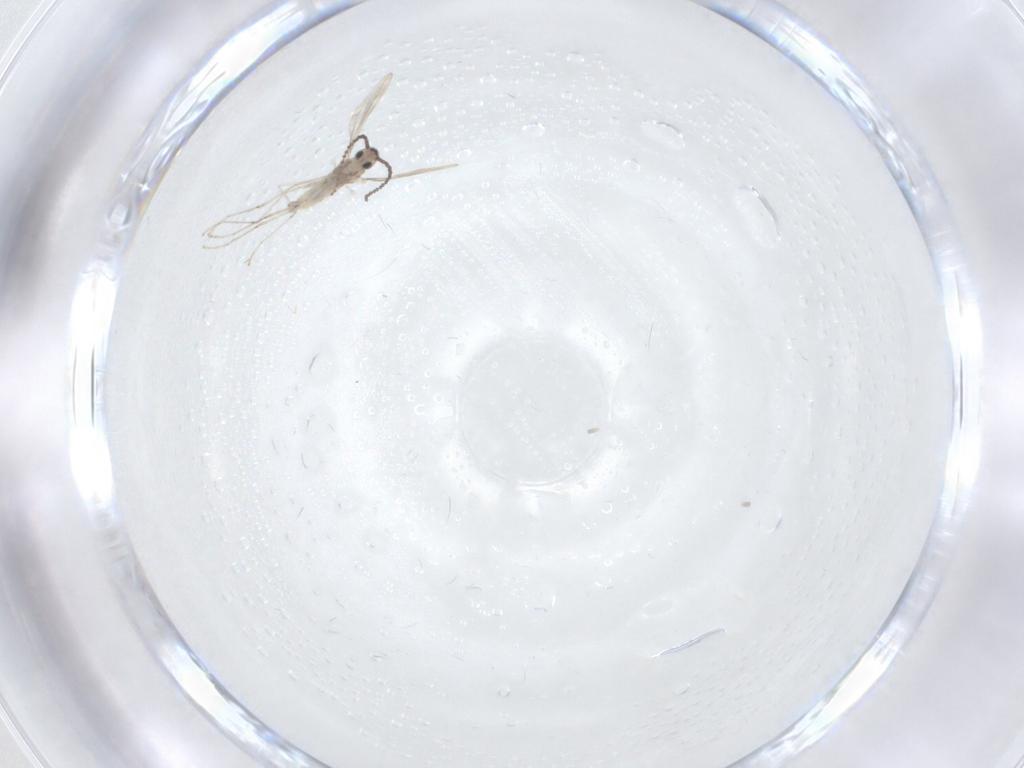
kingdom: Animalia
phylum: Arthropoda
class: Insecta
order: Diptera
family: Cecidomyiidae
